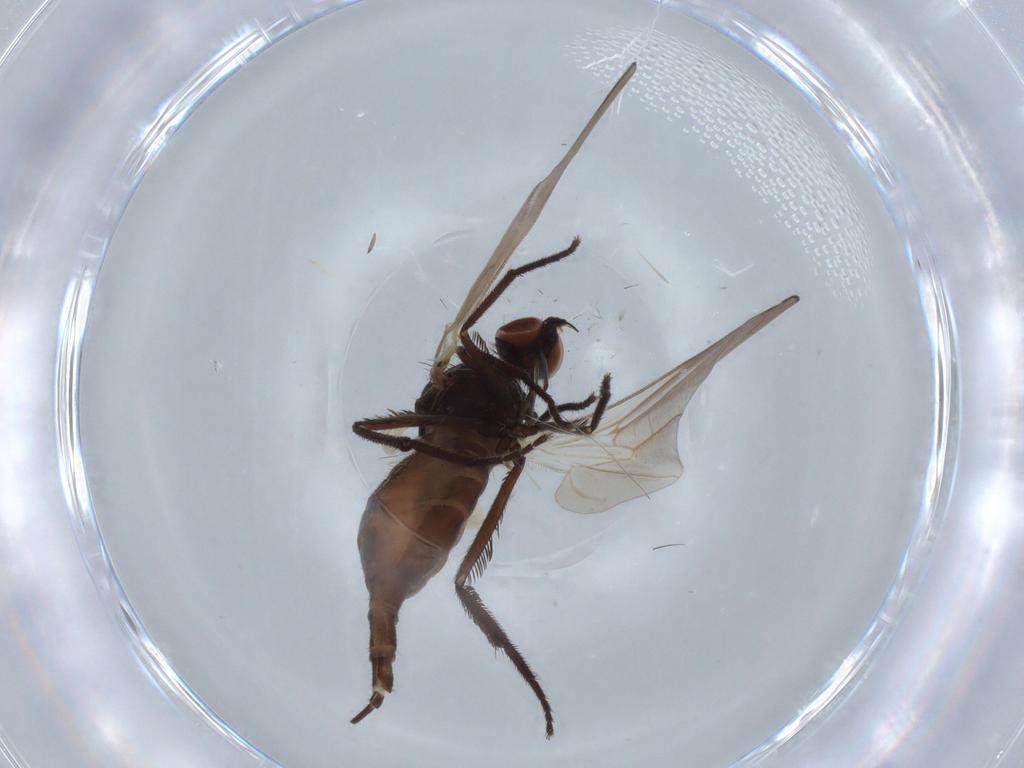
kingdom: Animalia
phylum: Arthropoda
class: Insecta
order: Diptera
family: Empididae
